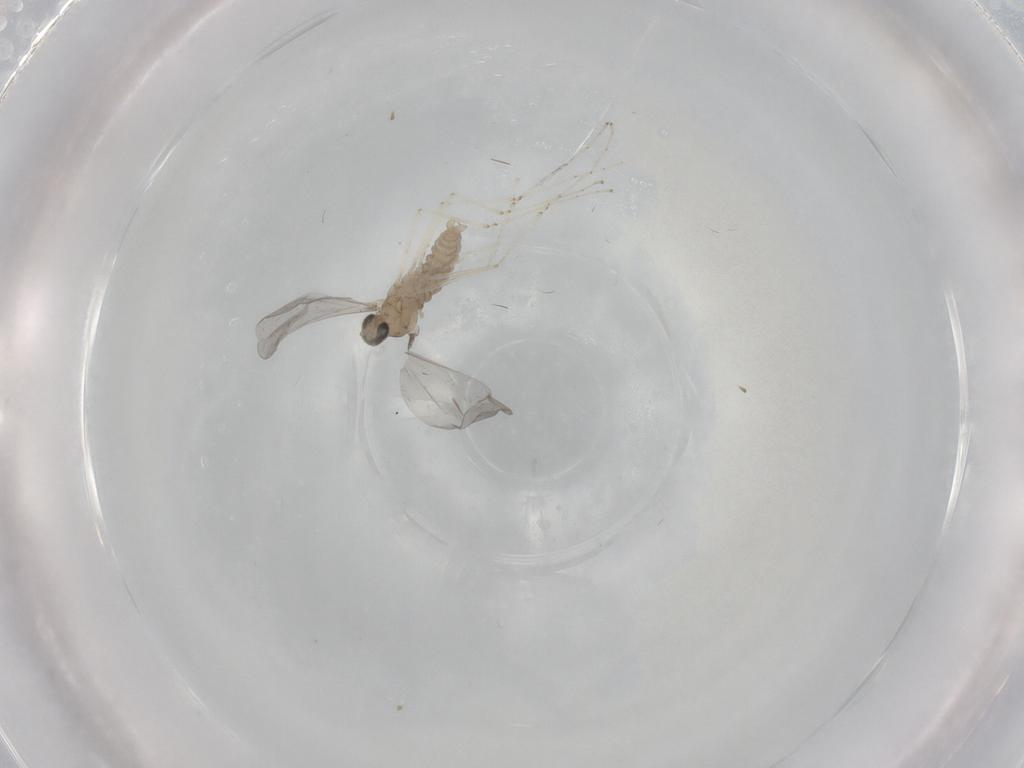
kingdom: Animalia
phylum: Arthropoda
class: Insecta
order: Diptera
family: Cecidomyiidae
